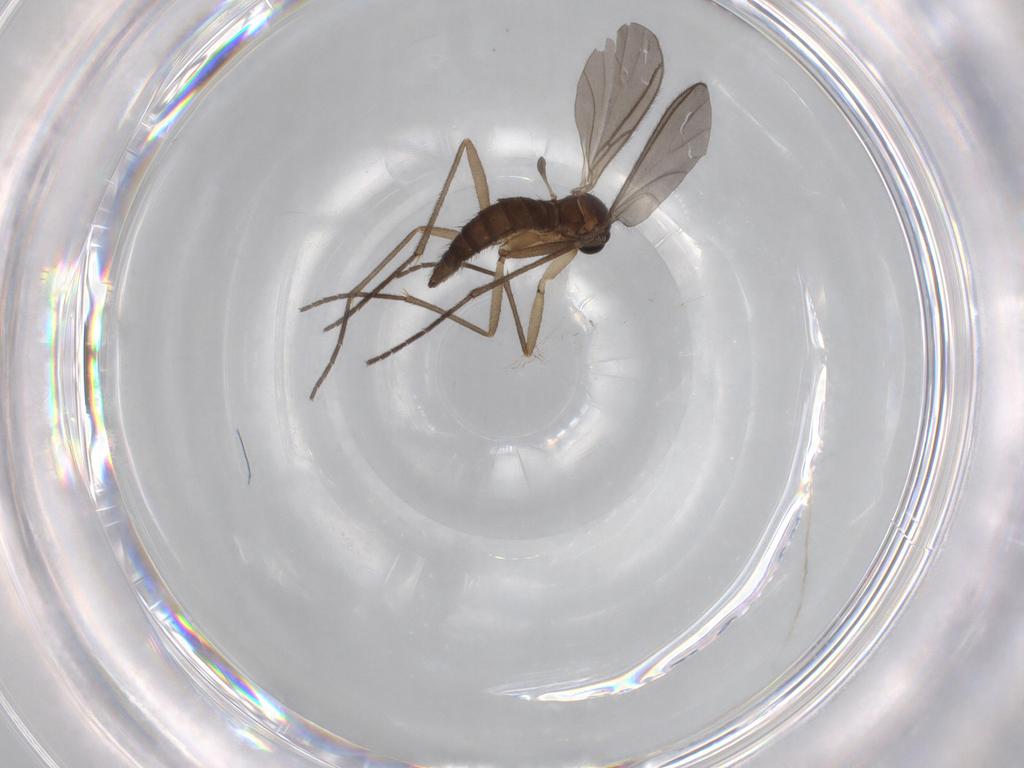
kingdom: Animalia
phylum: Arthropoda
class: Insecta
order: Diptera
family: Cecidomyiidae
